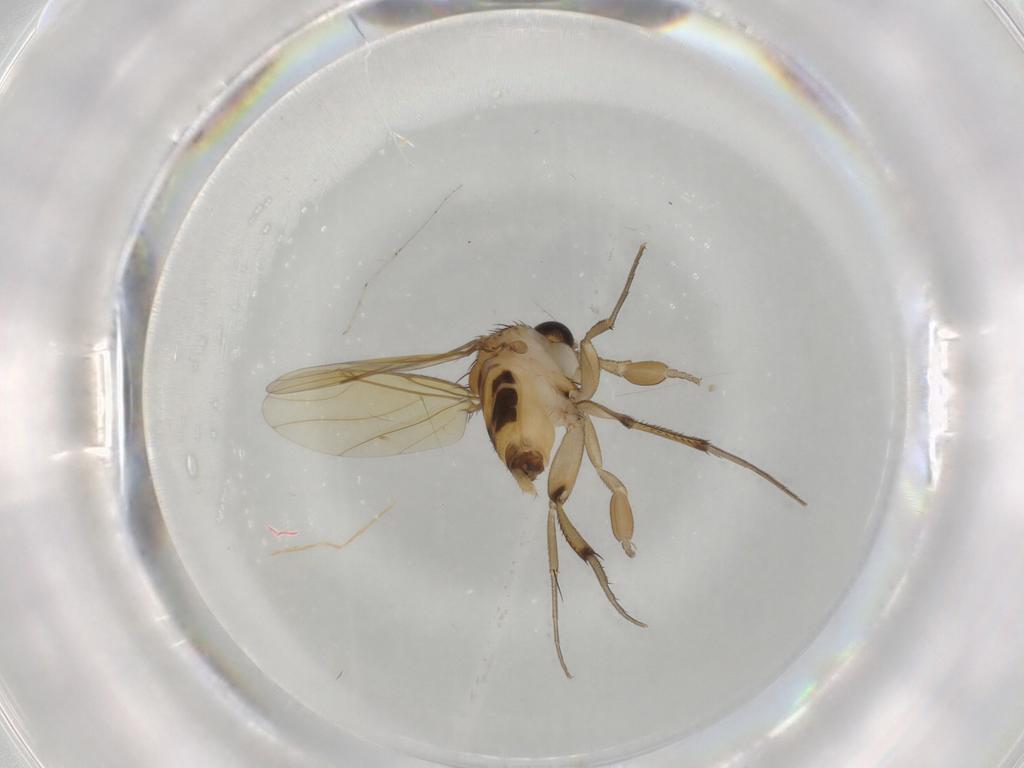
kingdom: Animalia
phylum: Arthropoda
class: Insecta
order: Diptera
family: Phoridae
